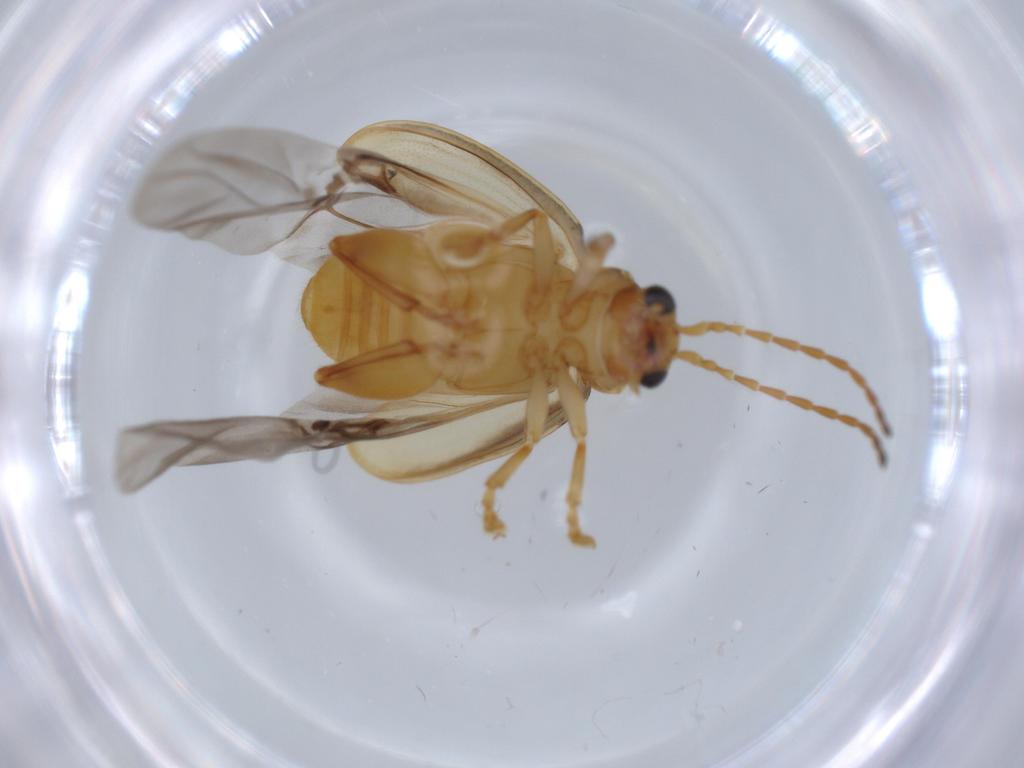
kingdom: Animalia
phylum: Arthropoda
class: Insecta
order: Coleoptera
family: Chrysomelidae
